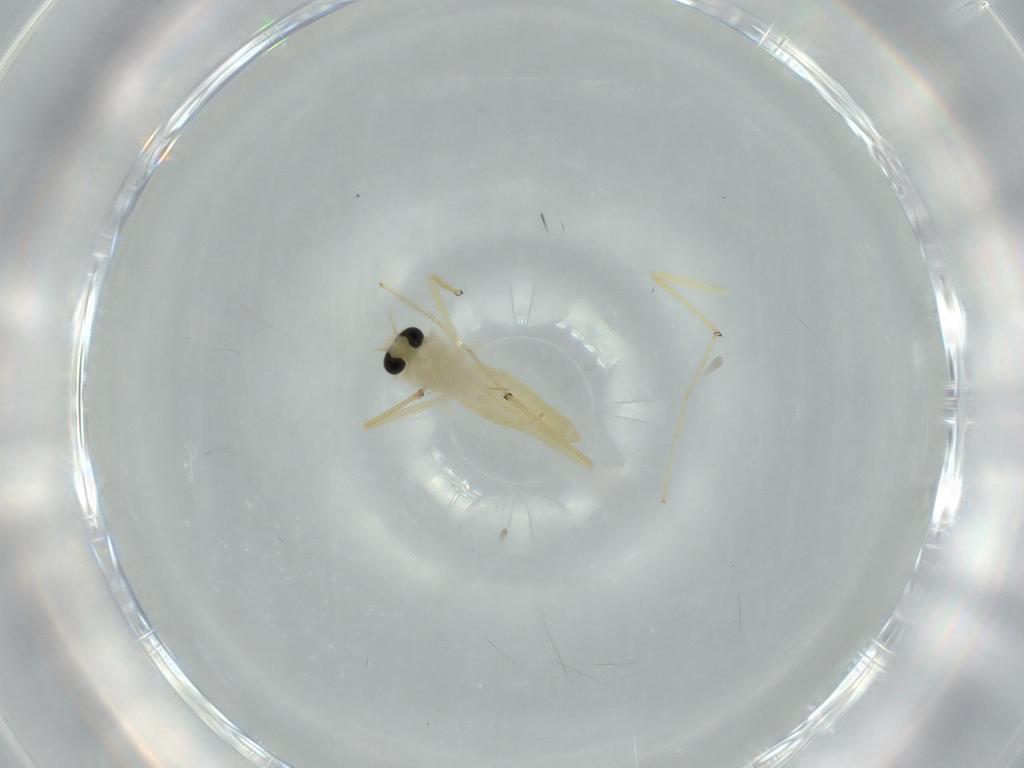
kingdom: Animalia
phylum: Arthropoda
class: Insecta
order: Diptera
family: Chironomidae
